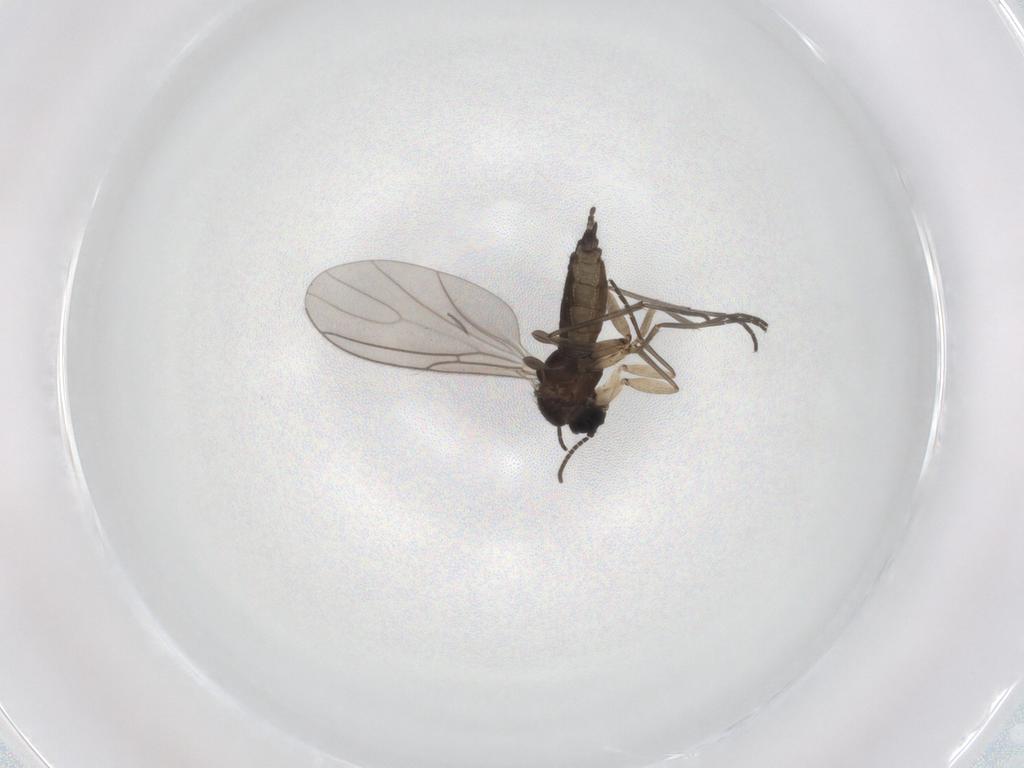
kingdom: Animalia
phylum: Arthropoda
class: Insecta
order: Diptera
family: Sciaridae
